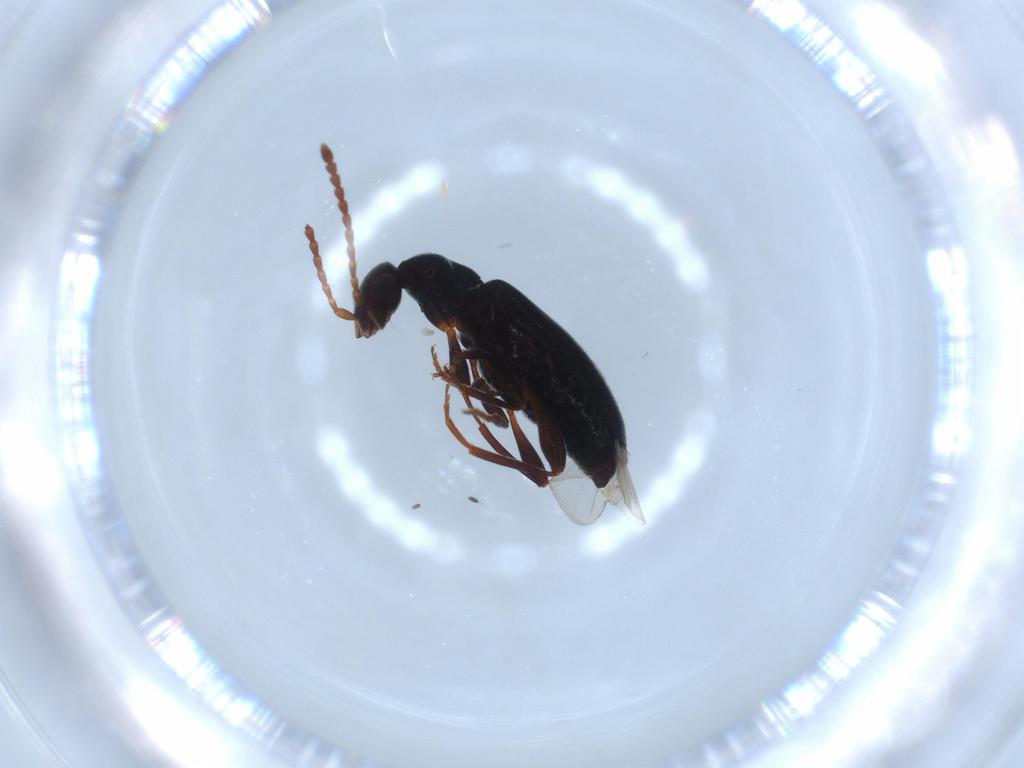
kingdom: Animalia
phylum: Arthropoda
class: Insecta
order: Coleoptera
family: Anthicidae
